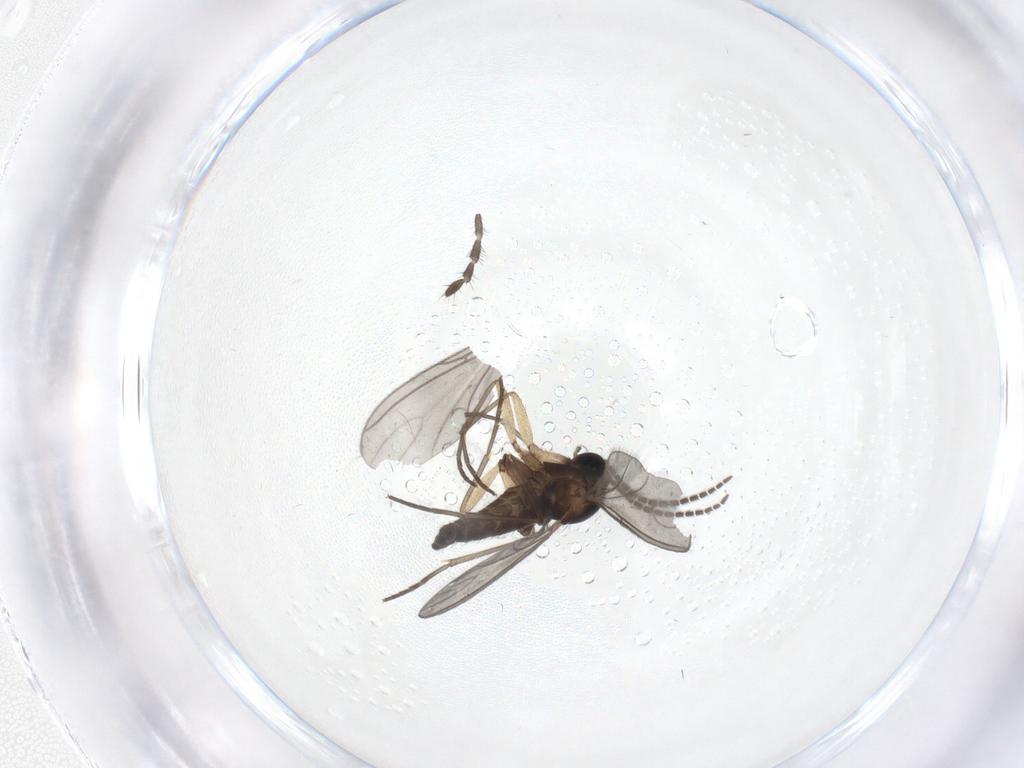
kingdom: Animalia
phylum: Arthropoda
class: Insecta
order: Diptera
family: Sciaridae
